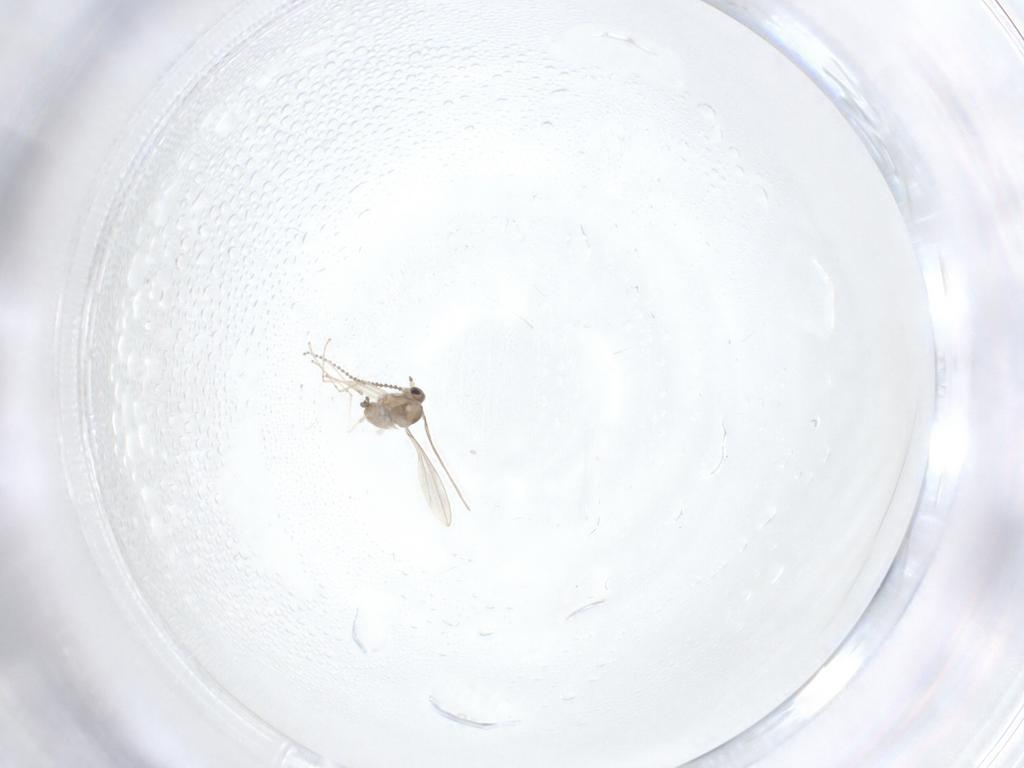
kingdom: Animalia
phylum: Arthropoda
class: Insecta
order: Diptera
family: Cecidomyiidae
